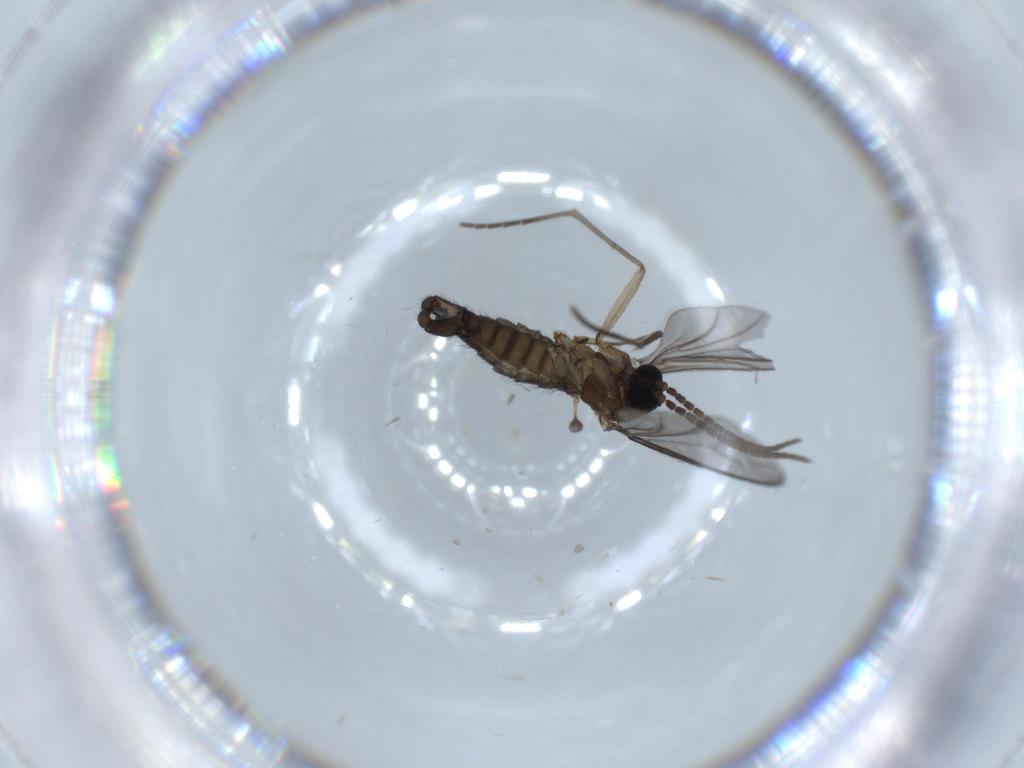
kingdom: Animalia
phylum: Arthropoda
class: Insecta
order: Diptera
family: Sciaridae
